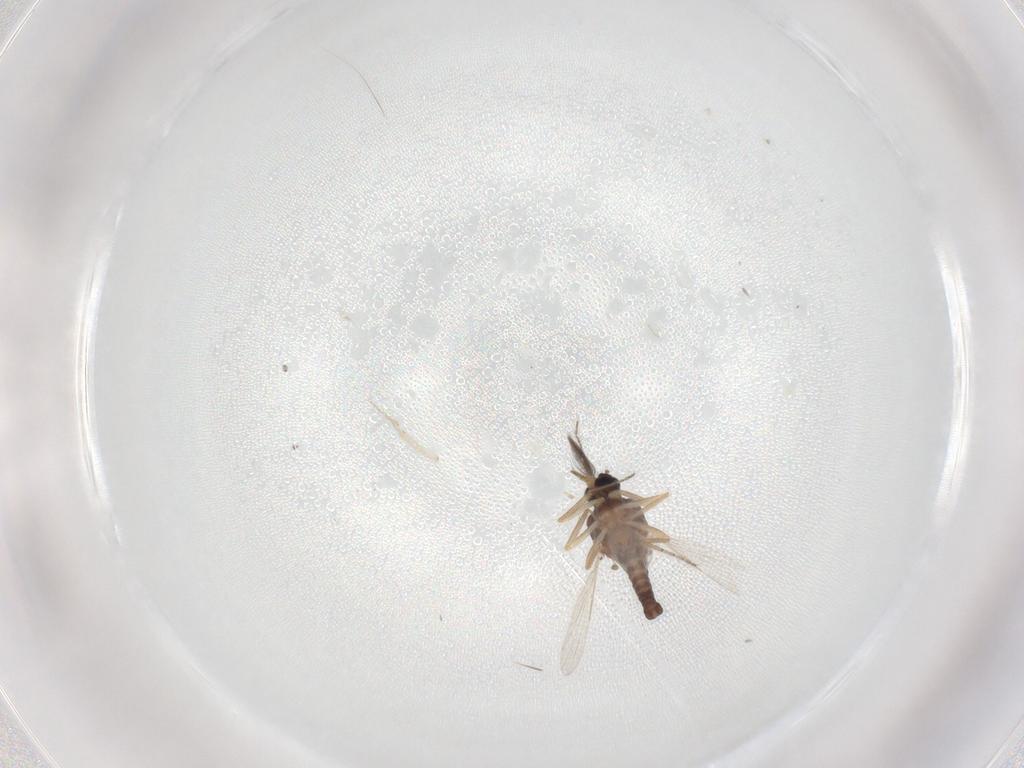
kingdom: Animalia
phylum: Arthropoda
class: Insecta
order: Diptera
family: Ceratopogonidae
